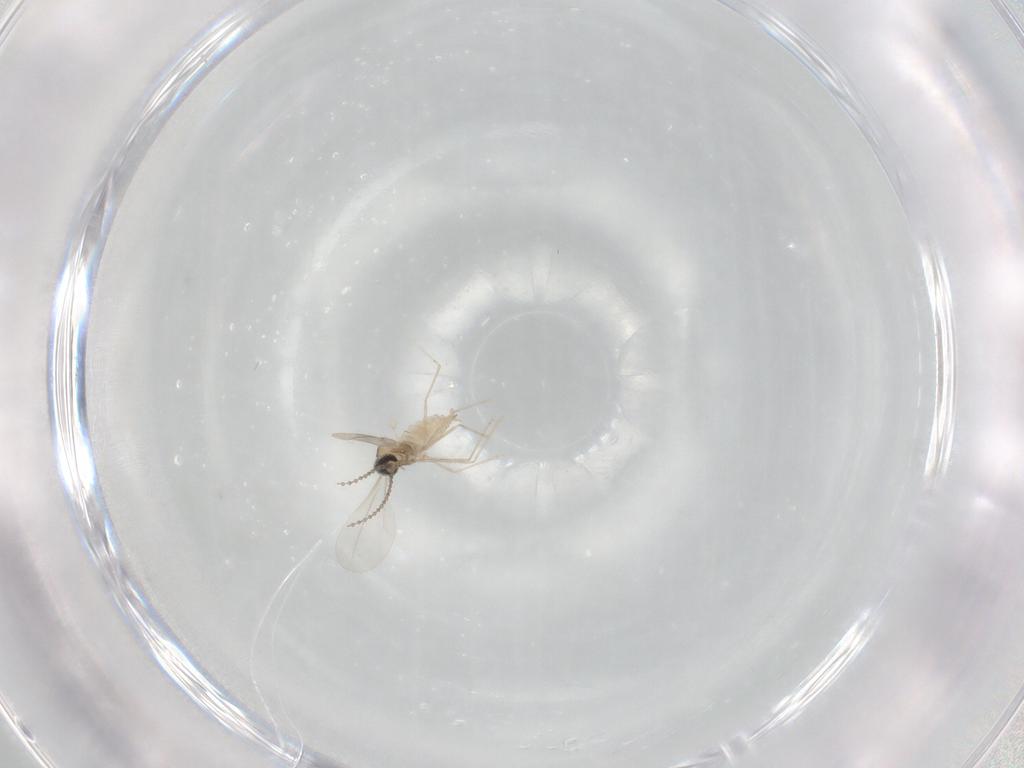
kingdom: Animalia
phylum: Arthropoda
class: Insecta
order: Diptera
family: Cecidomyiidae
